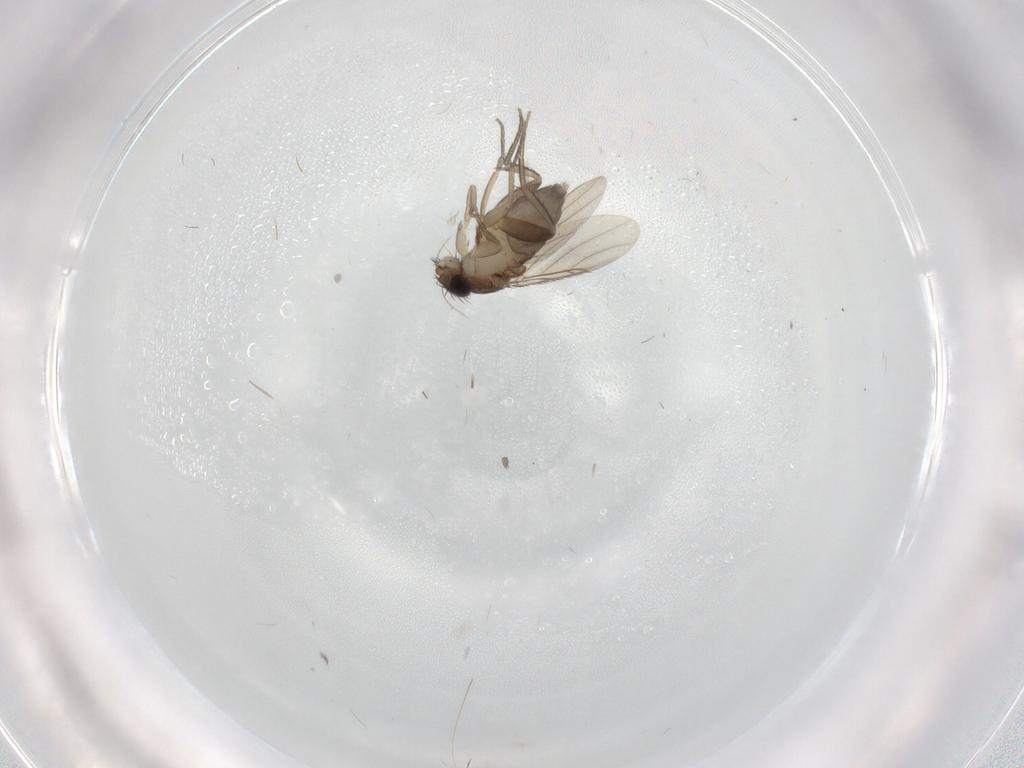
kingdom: Animalia
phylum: Arthropoda
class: Insecta
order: Diptera
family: Phoridae
